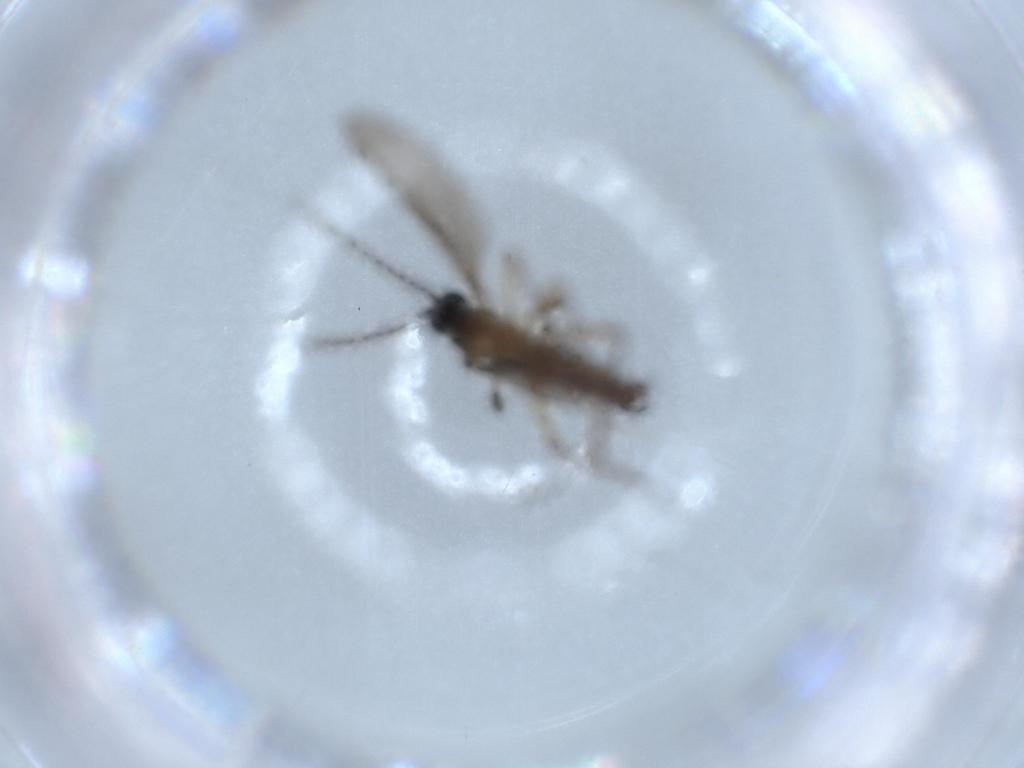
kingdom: Animalia
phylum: Arthropoda
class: Insecta
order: Diptera
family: Ceratopogonidae
